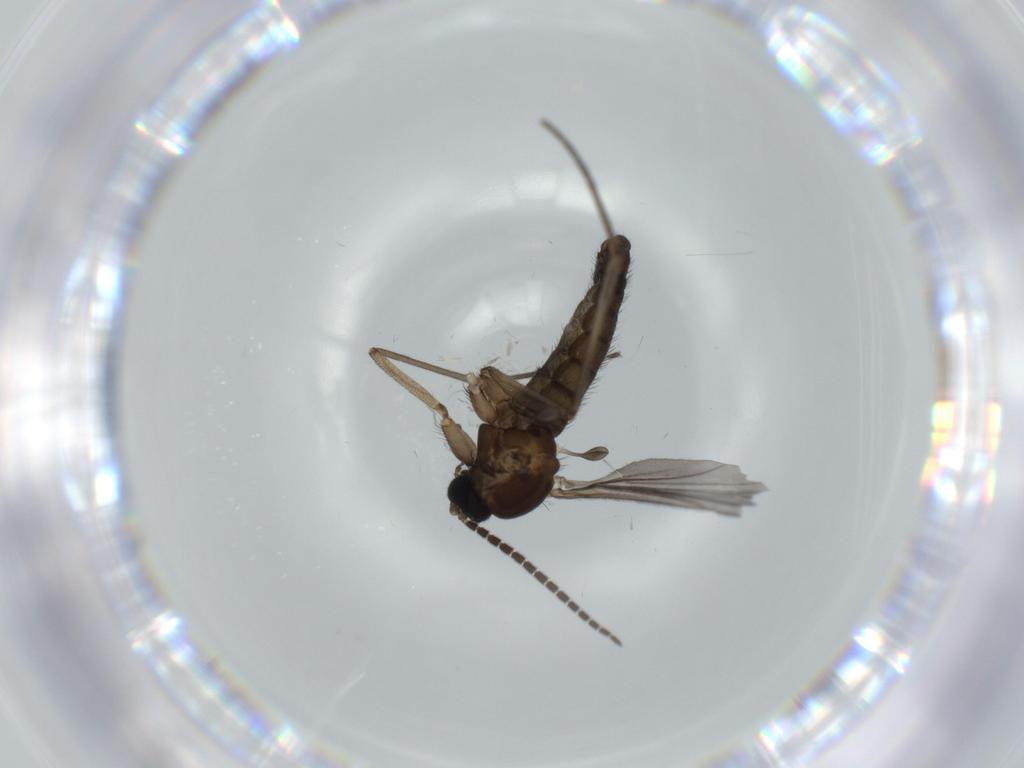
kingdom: Animalia
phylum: Arthropoda
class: Insecta
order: Diptera
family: Sciaridae
